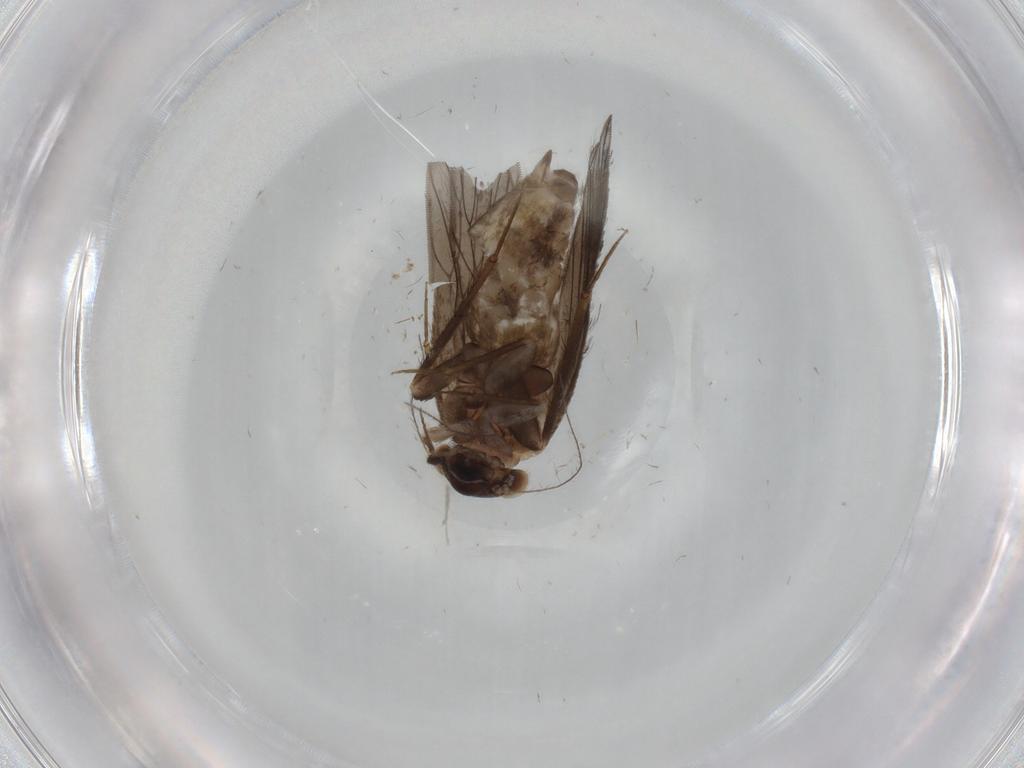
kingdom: Animalia
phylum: Arthropoda
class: Insecta
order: Psocodea
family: Lepidopsocidae
